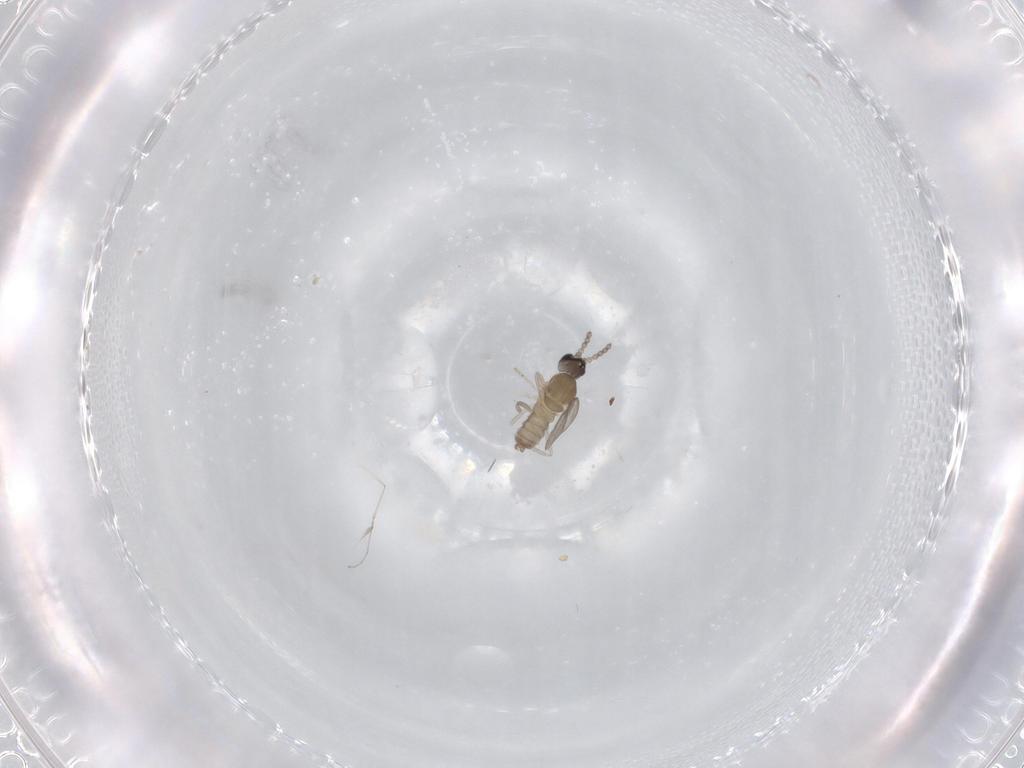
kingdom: Animalia
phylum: Arthropoda
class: Insecta
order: Diptera
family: Cecidomyiidae
